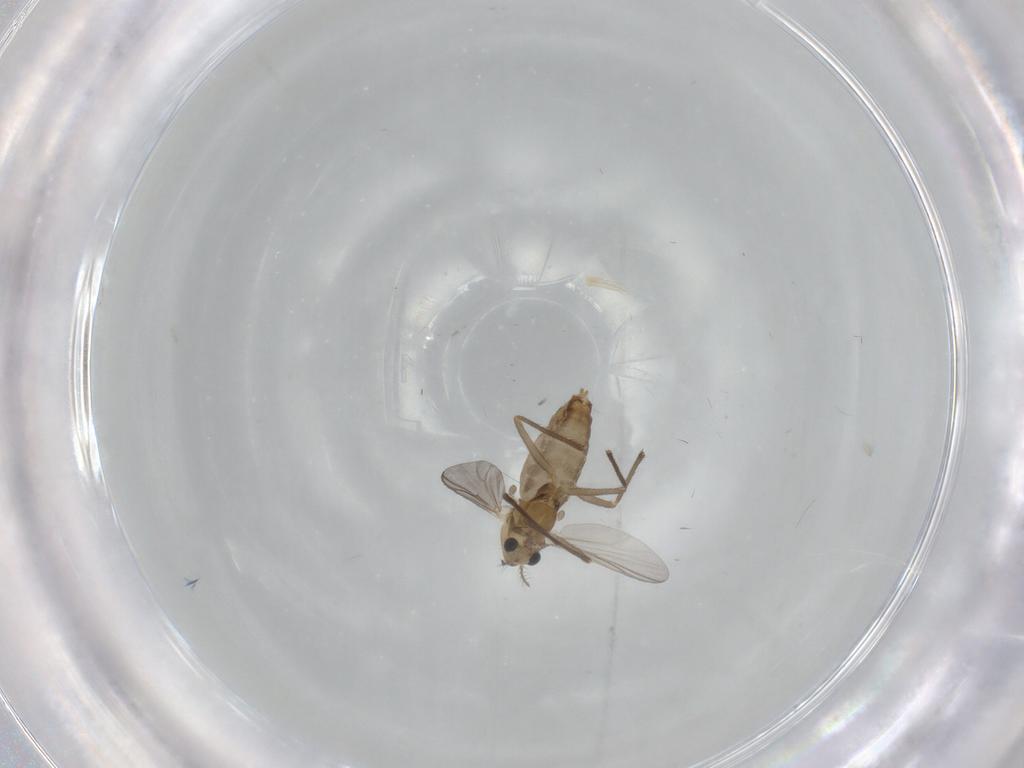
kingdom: Animalia
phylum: Arthropoda
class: Insecta
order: Diptera
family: Chironomidae
